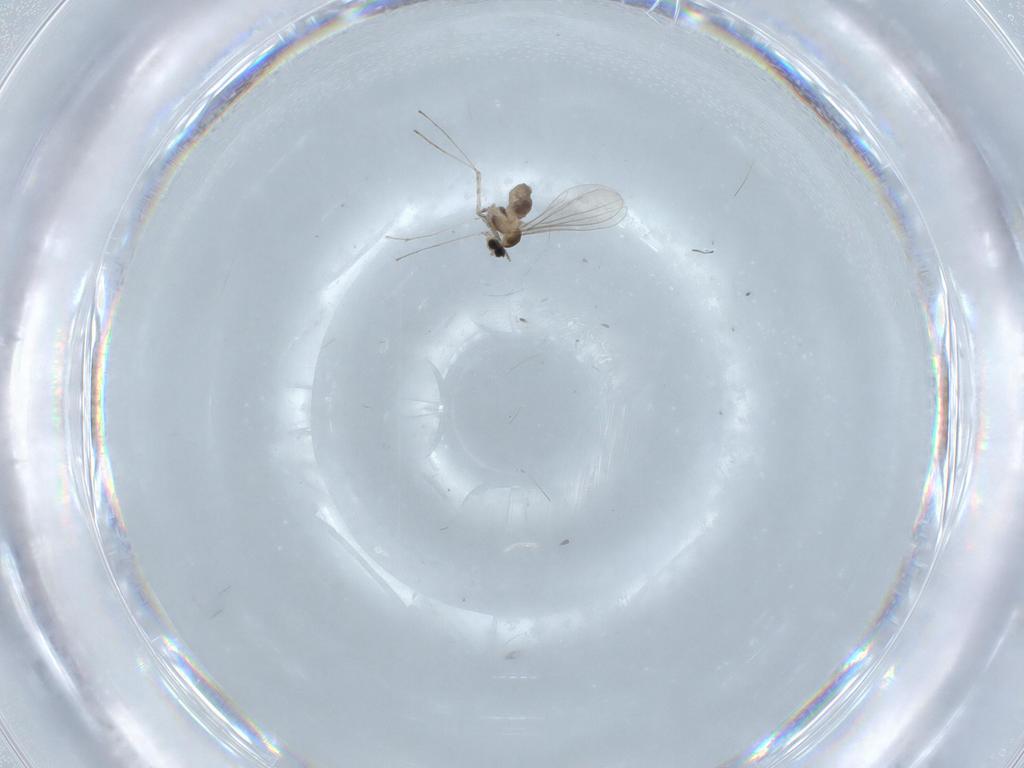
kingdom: Animalia
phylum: Arthropoda
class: Insecta
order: Diptera
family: Cecidomyiidae
